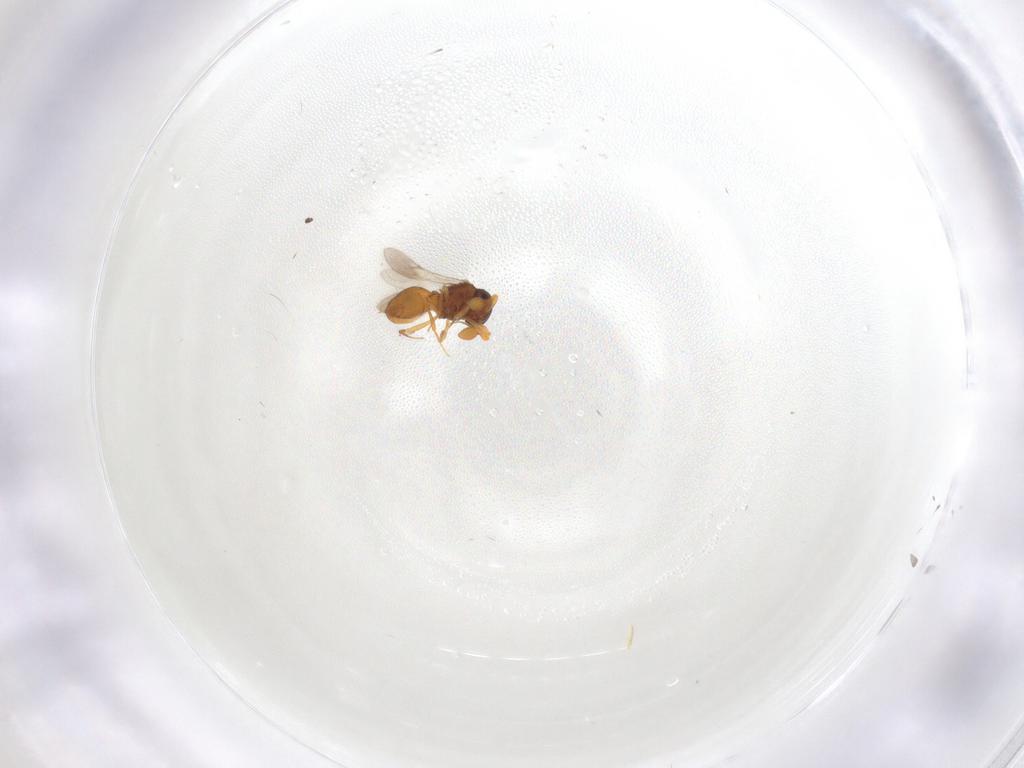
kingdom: Animalia
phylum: Arthropoda
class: Insecta
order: Hymenoptera
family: Scelionidae
